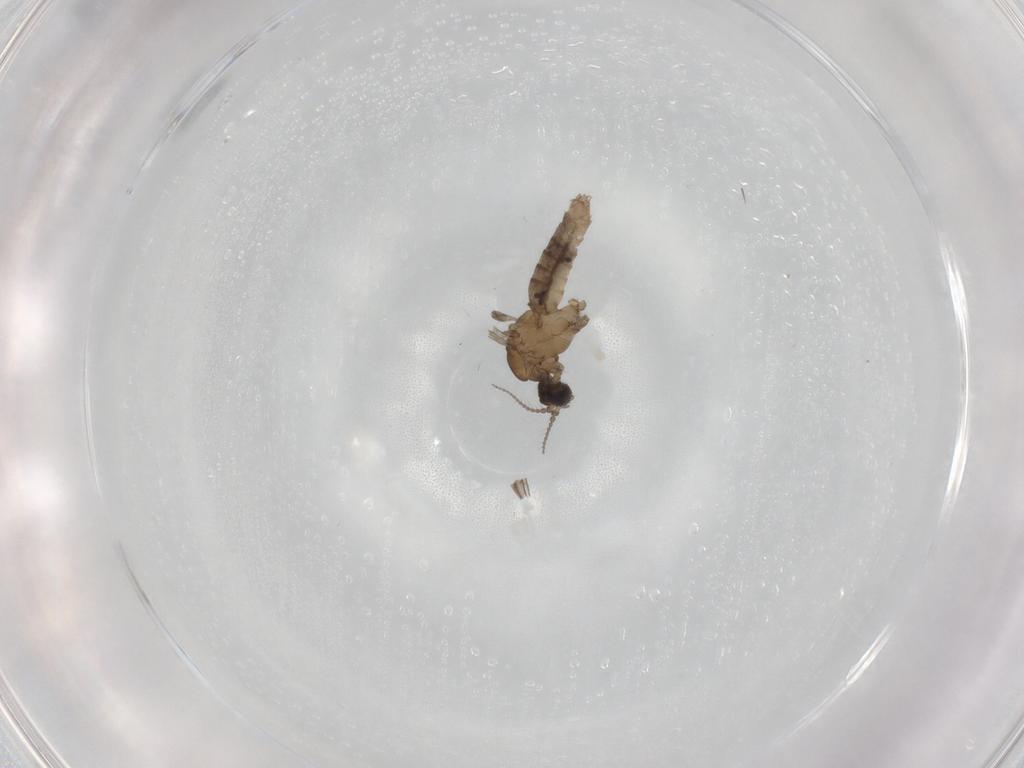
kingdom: Animalia
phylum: Arthropoda
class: Insecta
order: Diptera
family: Limoniidae
